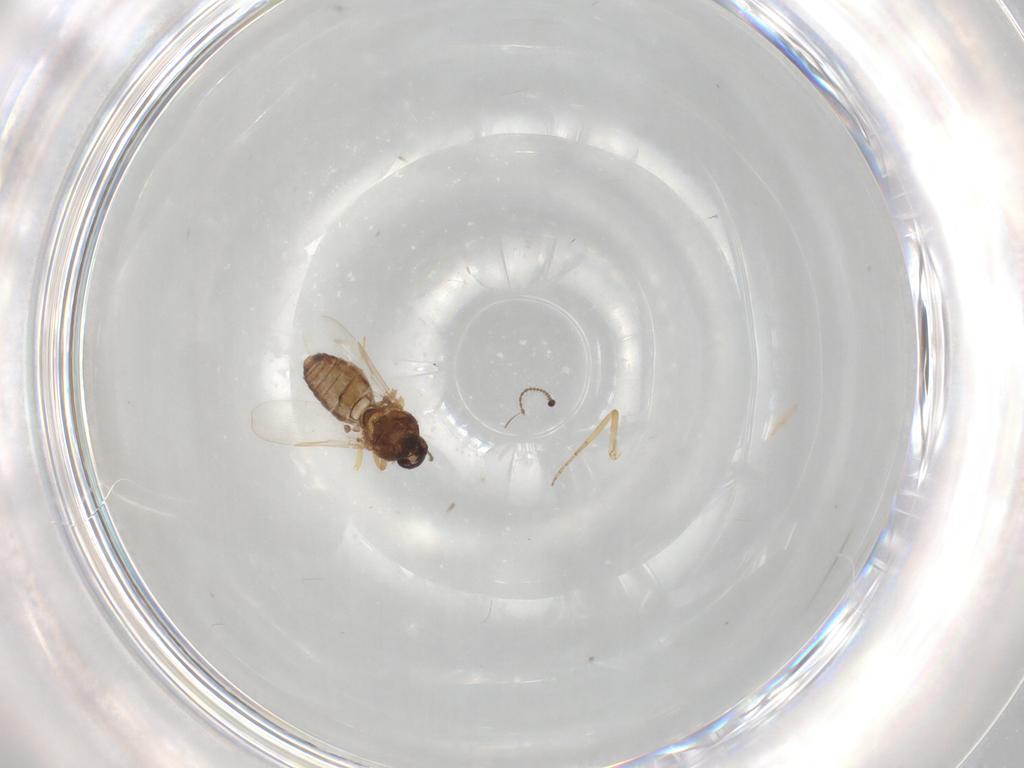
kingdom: Animalia
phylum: Arthropoda
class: Insecta
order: Diptera
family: Ceratopogonidae
